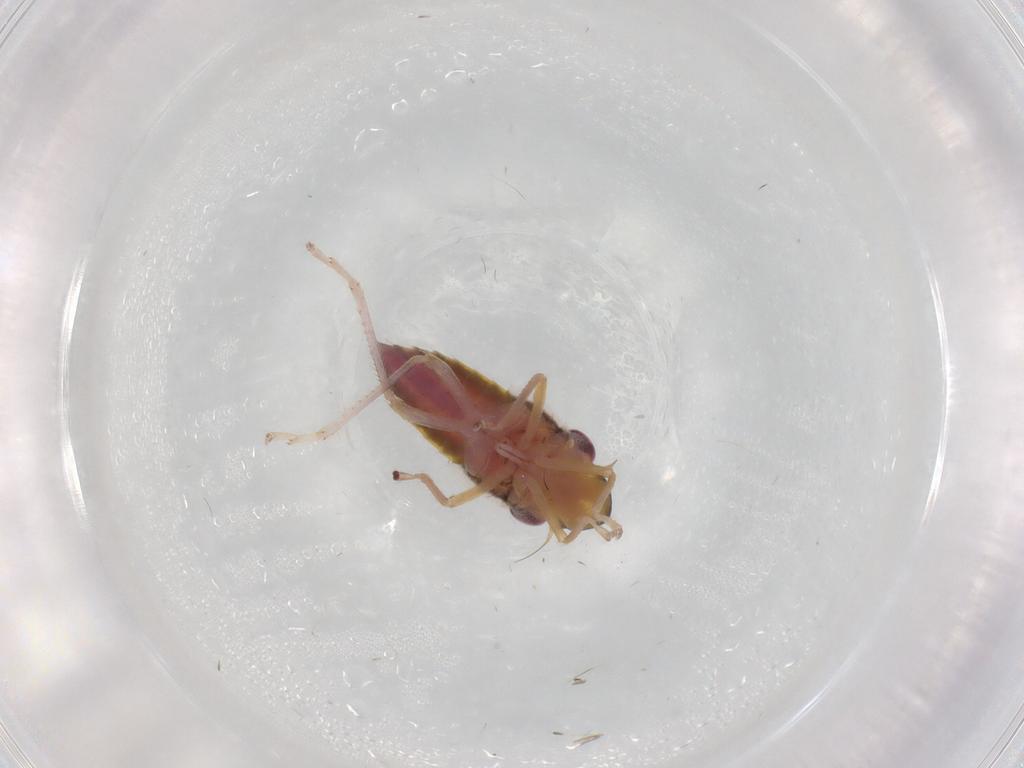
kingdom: Animalia
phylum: Arthropoda
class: Insecta
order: Hemiptera
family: Cicadellidae
